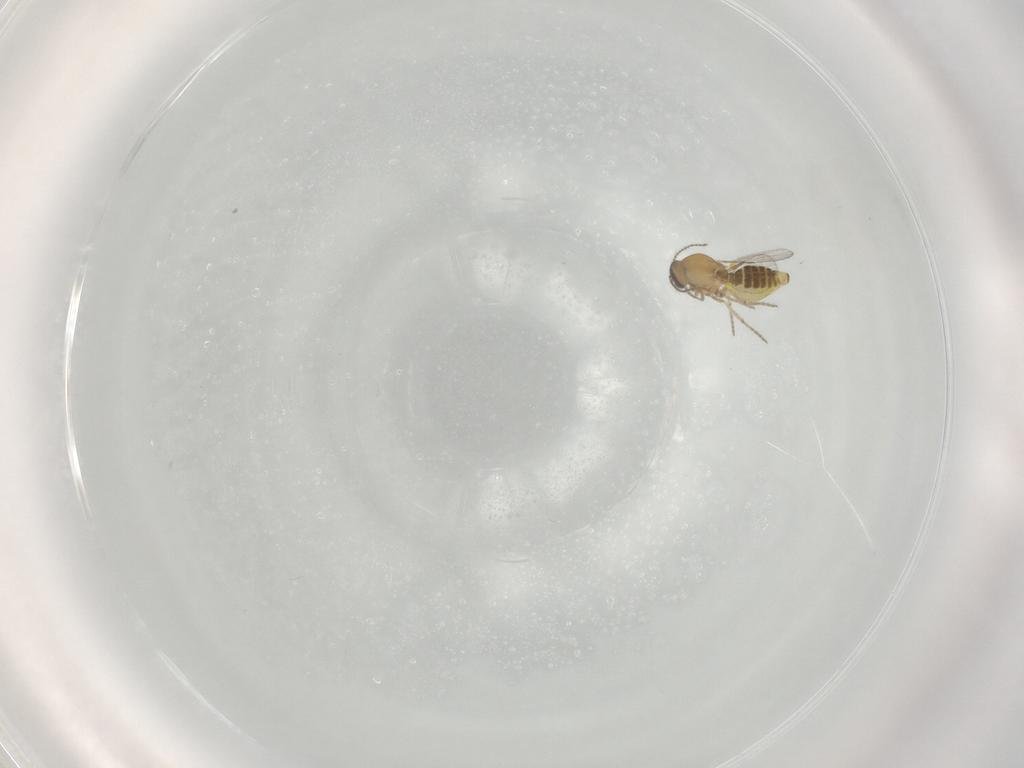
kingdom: Animalia
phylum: Arthropoda
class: Insecta
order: Diptera
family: Ceratopogonidae
